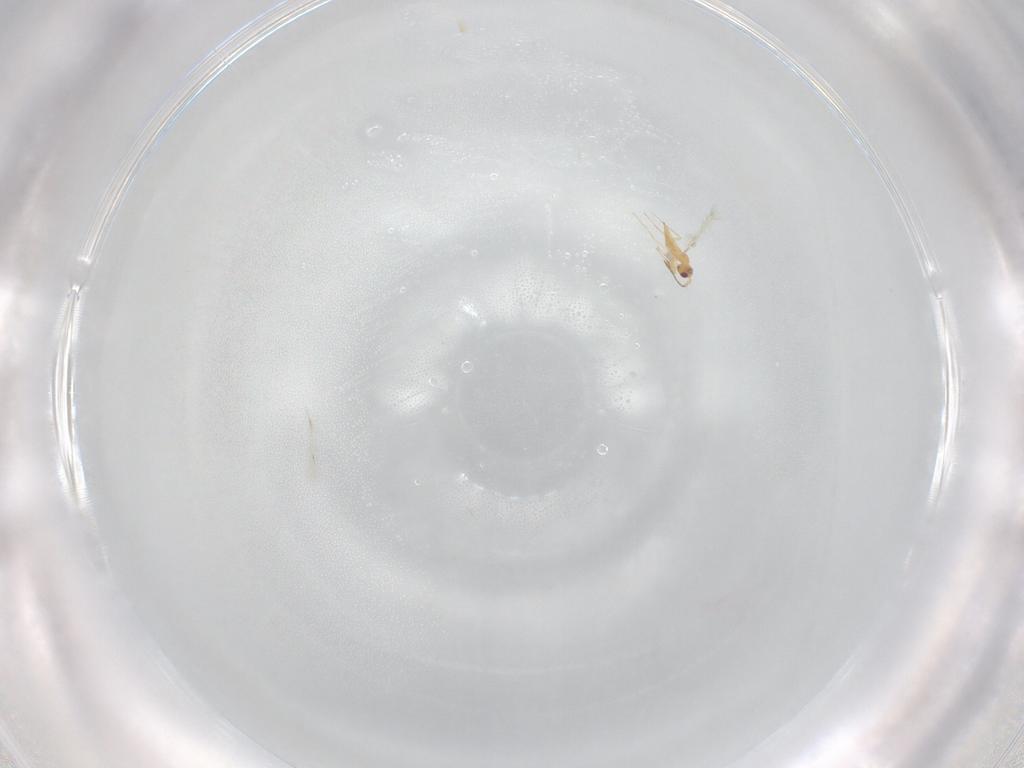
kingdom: Animalia
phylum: Arthropoda
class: Insecta
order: Hymenoptera
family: Mymaridae
